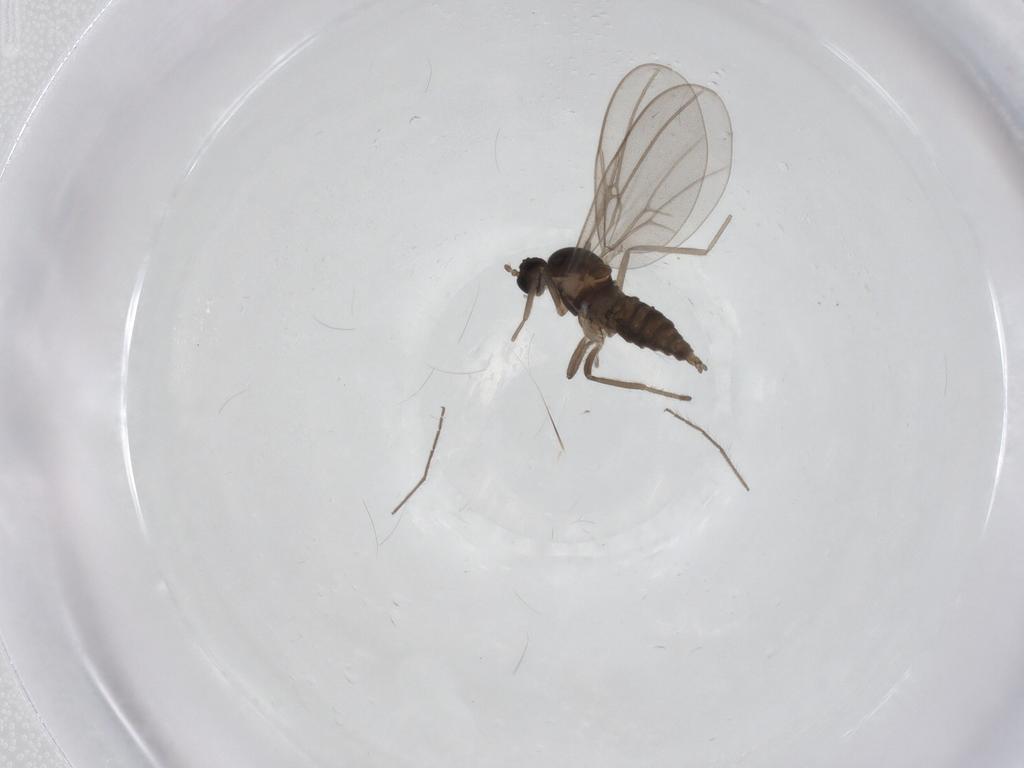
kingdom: Animalia
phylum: Arthropoda
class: Insecta
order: Diptera
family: Cecidomyiidae
